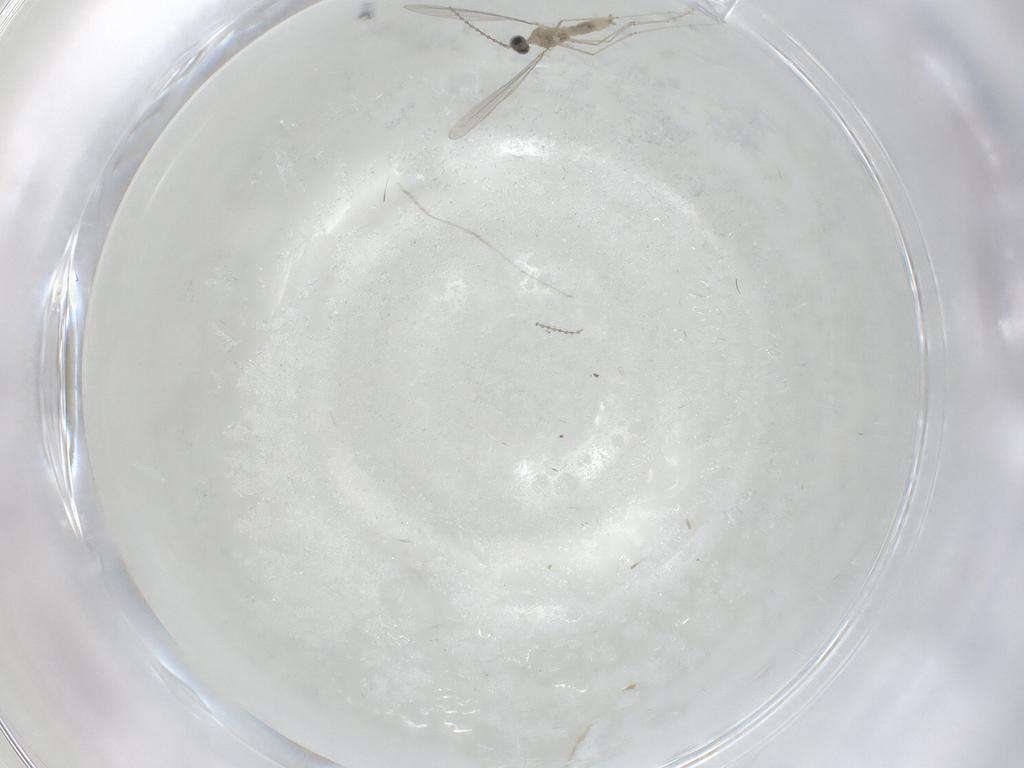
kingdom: Animalia
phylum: Arthropoda
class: Insecta
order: Diptera
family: Cecidomyiidae
